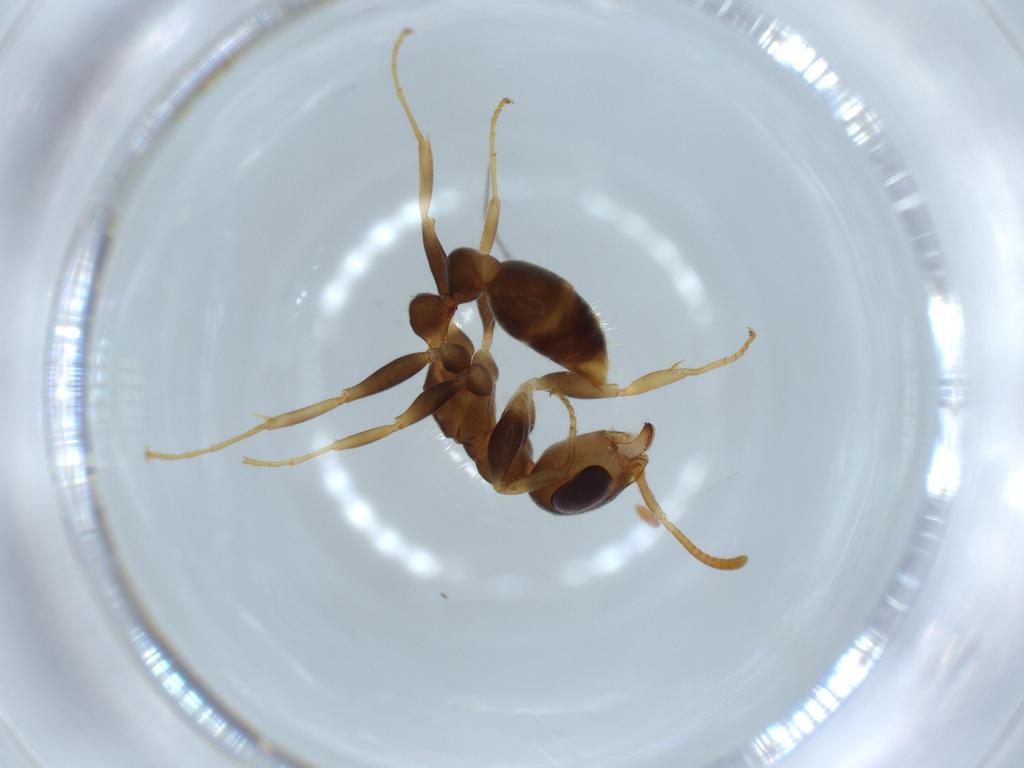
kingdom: Animalia
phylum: Arthropoda
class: Insecta
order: Hymenoptera
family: Formicidae
